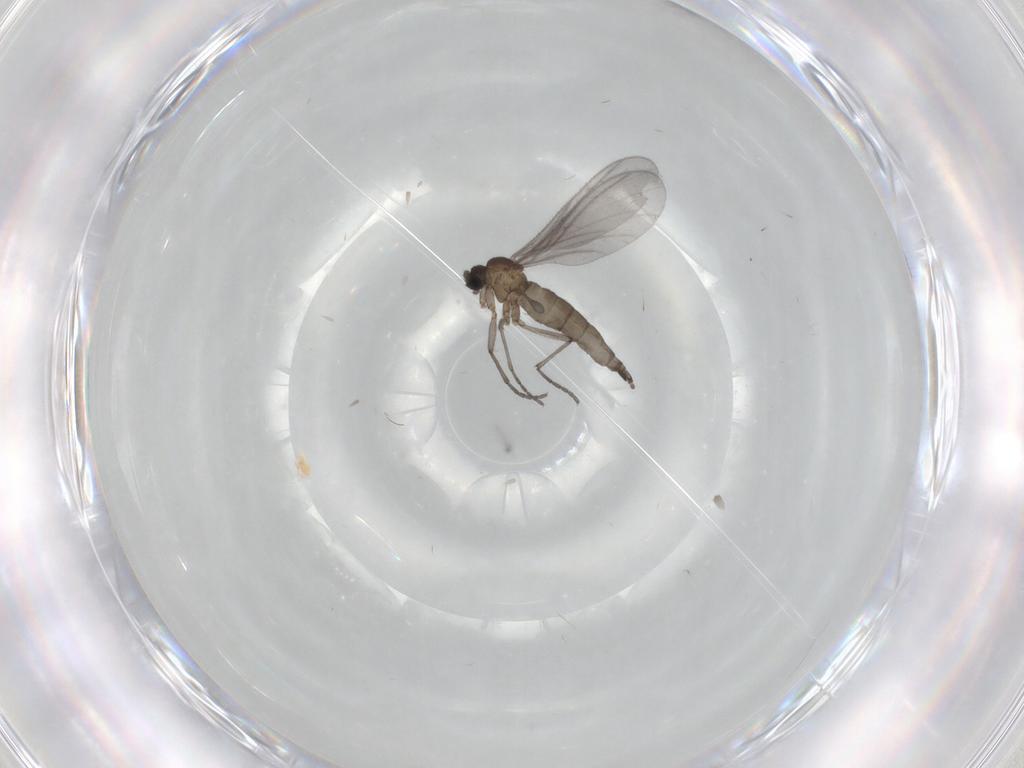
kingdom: Animalia
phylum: Arthropoda
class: Insecta
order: Diptera
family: Sciaridae
